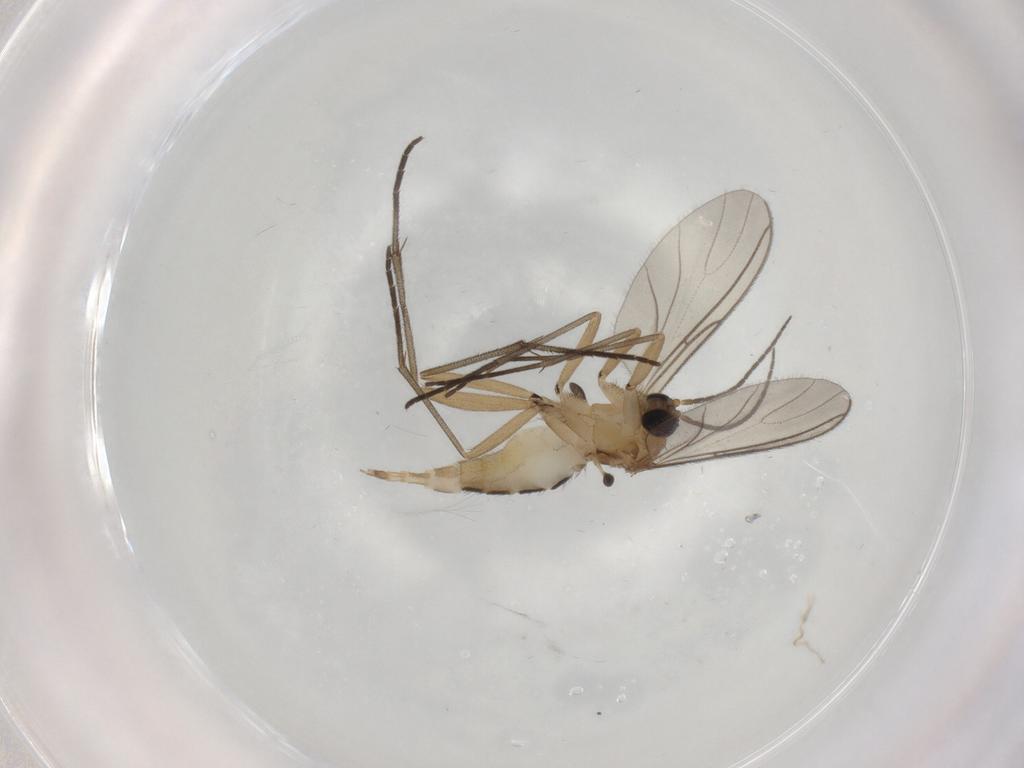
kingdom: Animalia
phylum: Arthropoda
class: Insecta
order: Diptera
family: Sciaridae
